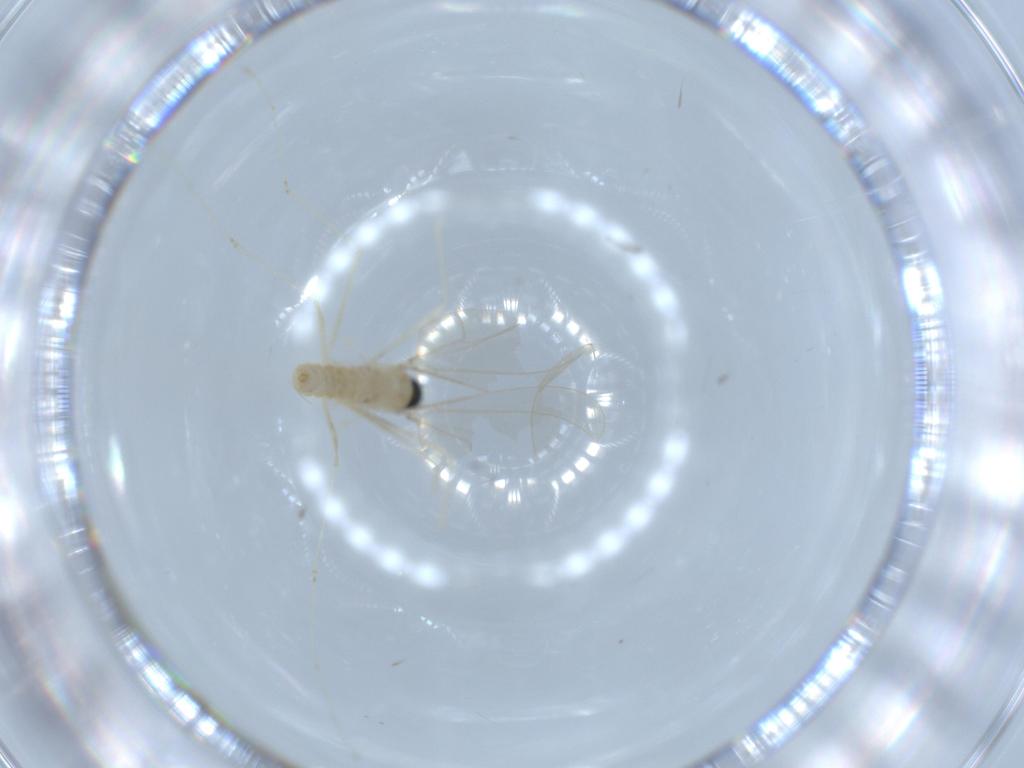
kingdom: Animalia
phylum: Arthropoda
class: Insecta
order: Diptera
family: Cecidomyiidae
